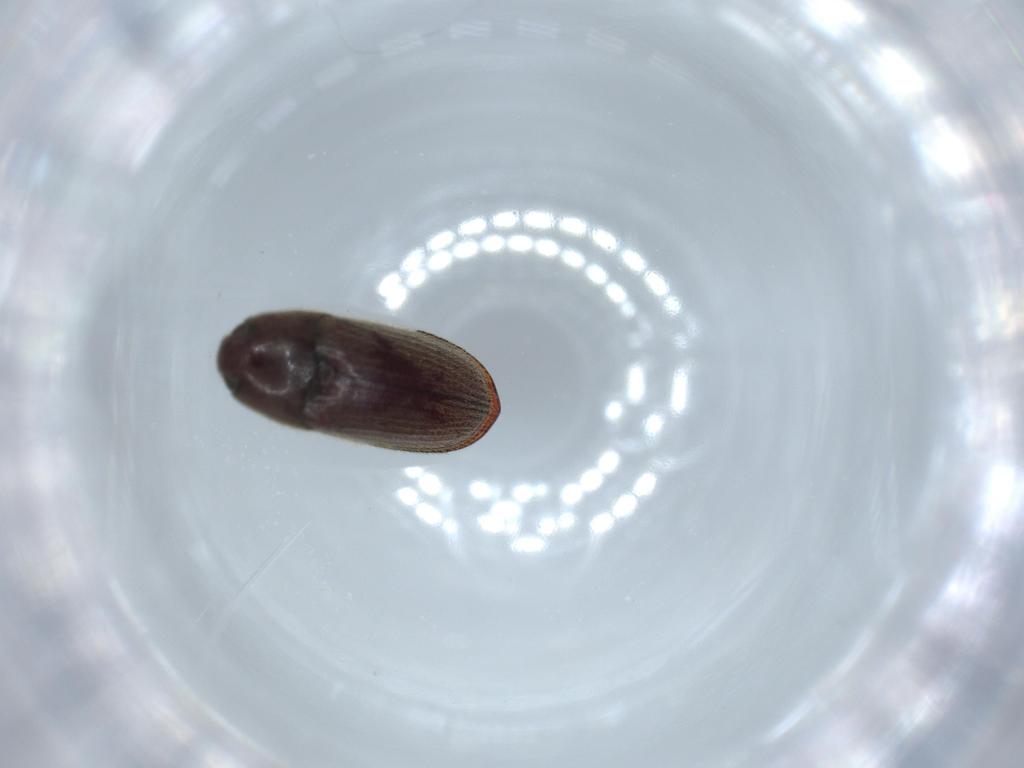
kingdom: Animalia
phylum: Arthropoda
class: Insecta
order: Coleoptera
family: Throscidae
